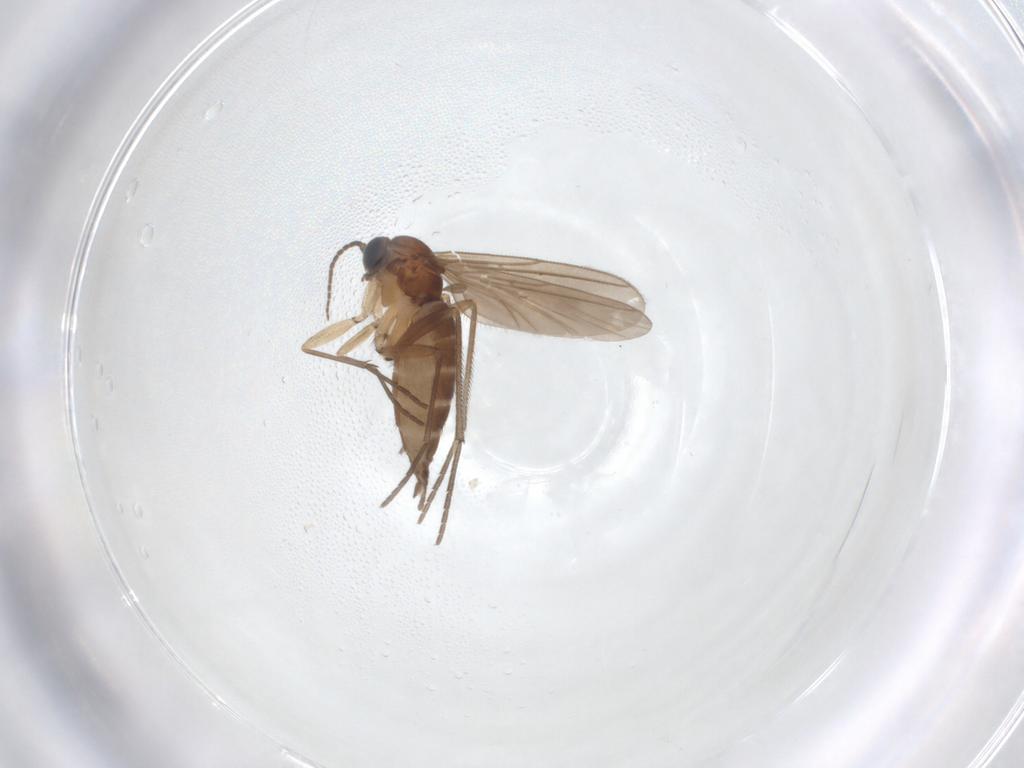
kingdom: Animalia
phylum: Arthropoda
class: Insecta
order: Diptera
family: Sciaridae
